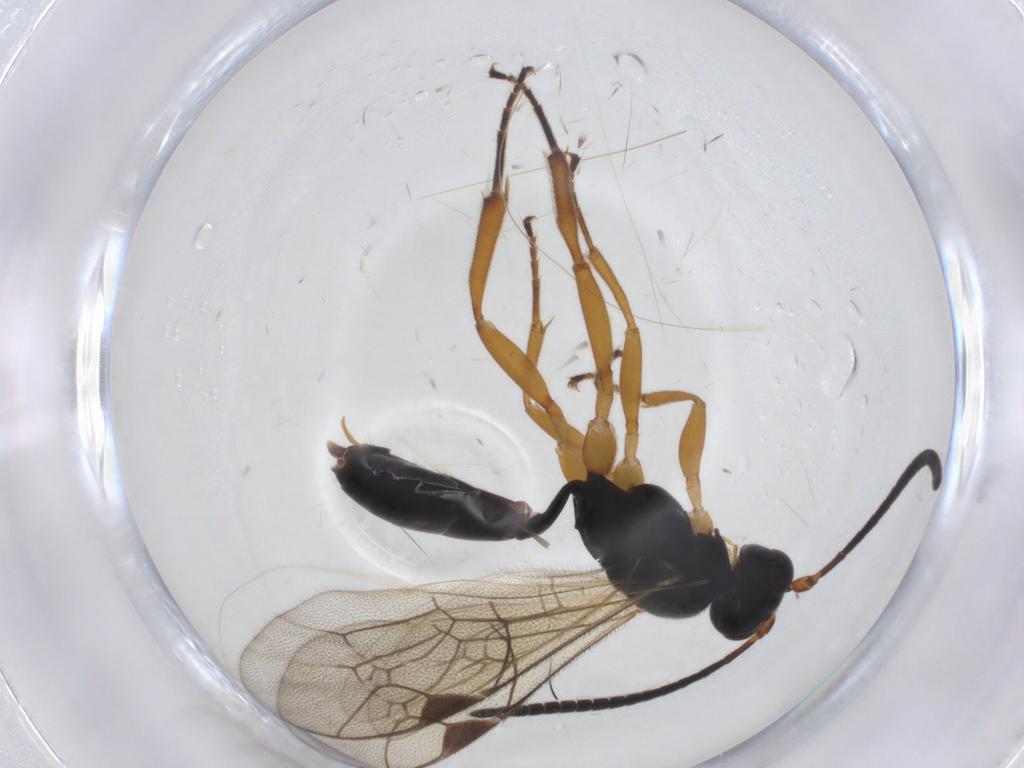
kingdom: Animalia
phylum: Arthropoda
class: Insecta
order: Hymenoptera
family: Ichneumonidae
